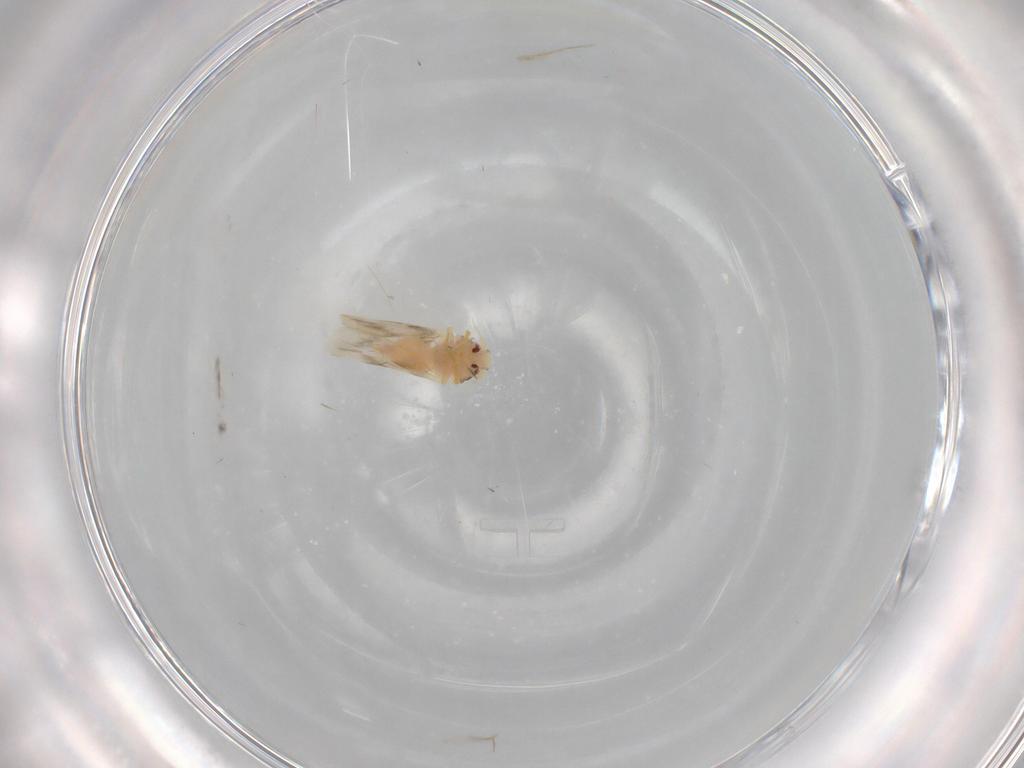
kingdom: Animalia
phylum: Arthropoda
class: Insecta
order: Hemiptera
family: Aleyrodidae
